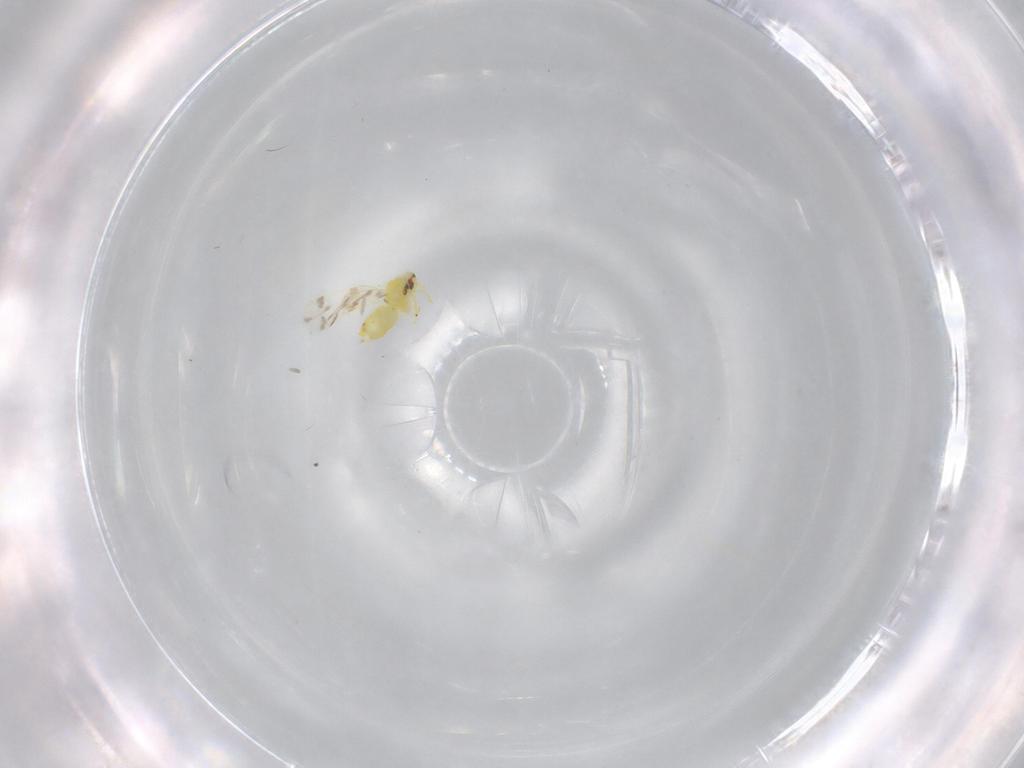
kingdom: Animalia
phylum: Arthropoda
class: Insecta
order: Hemiptera
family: Aleyrodidae
